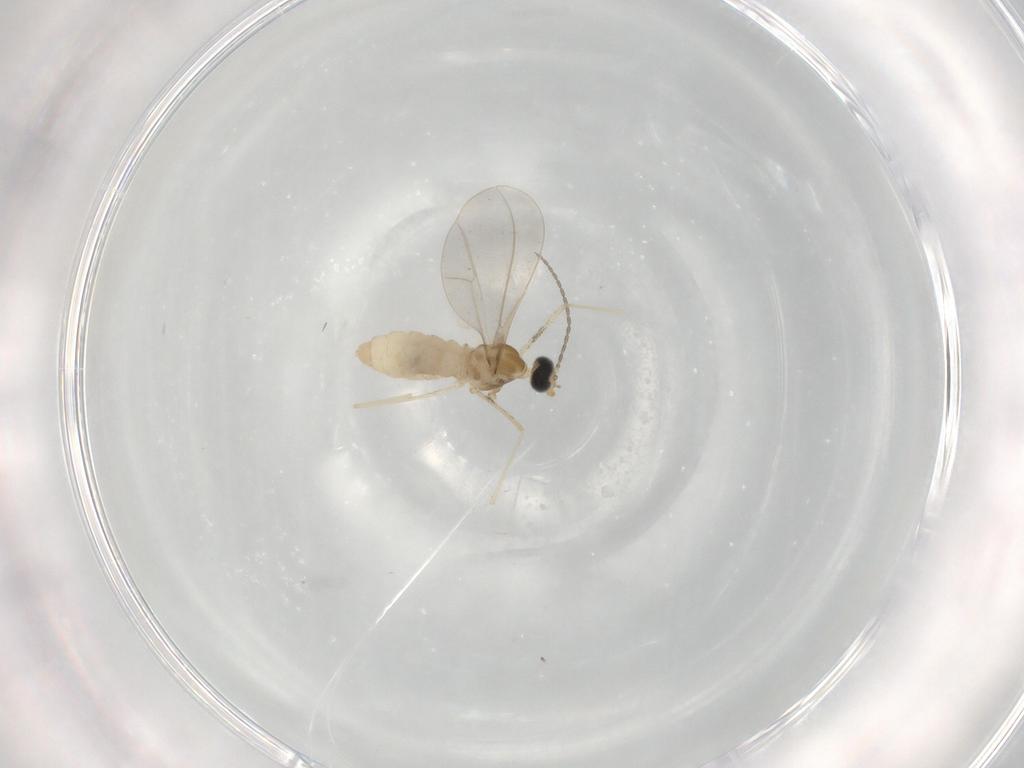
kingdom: Animalia
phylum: Arthropoda
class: Insecta
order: Diptera
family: Cecidomyiidae
